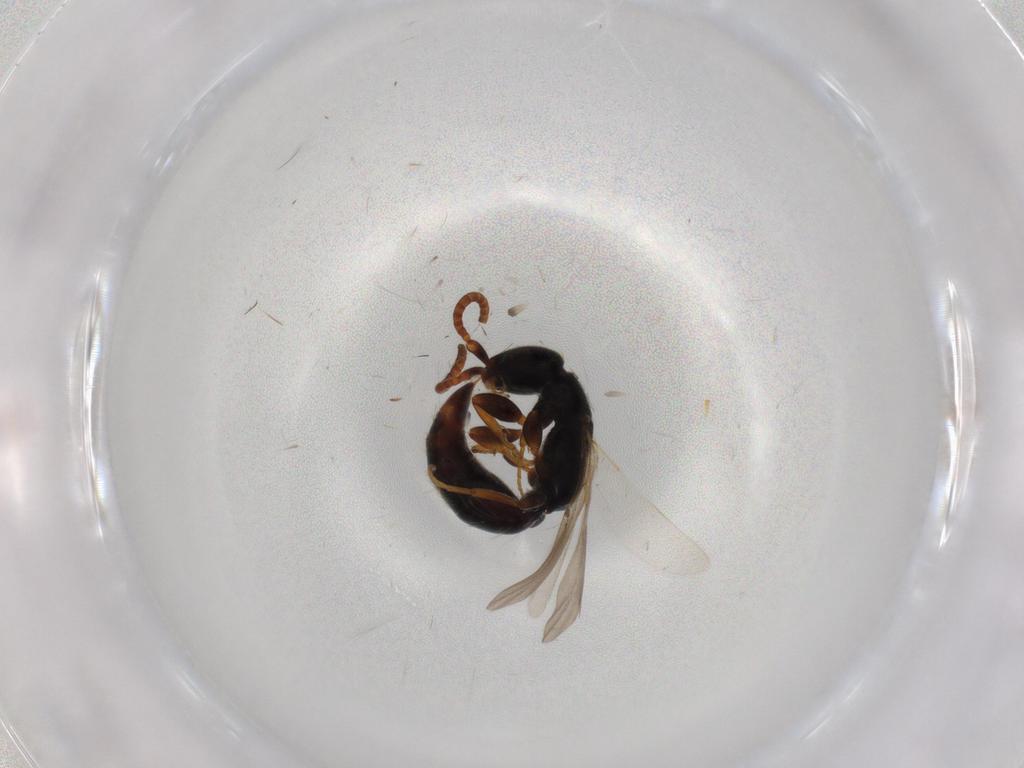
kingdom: Animalia
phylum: Arthropoda
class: Insecta
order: Hymenoptera
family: Bethylidae
